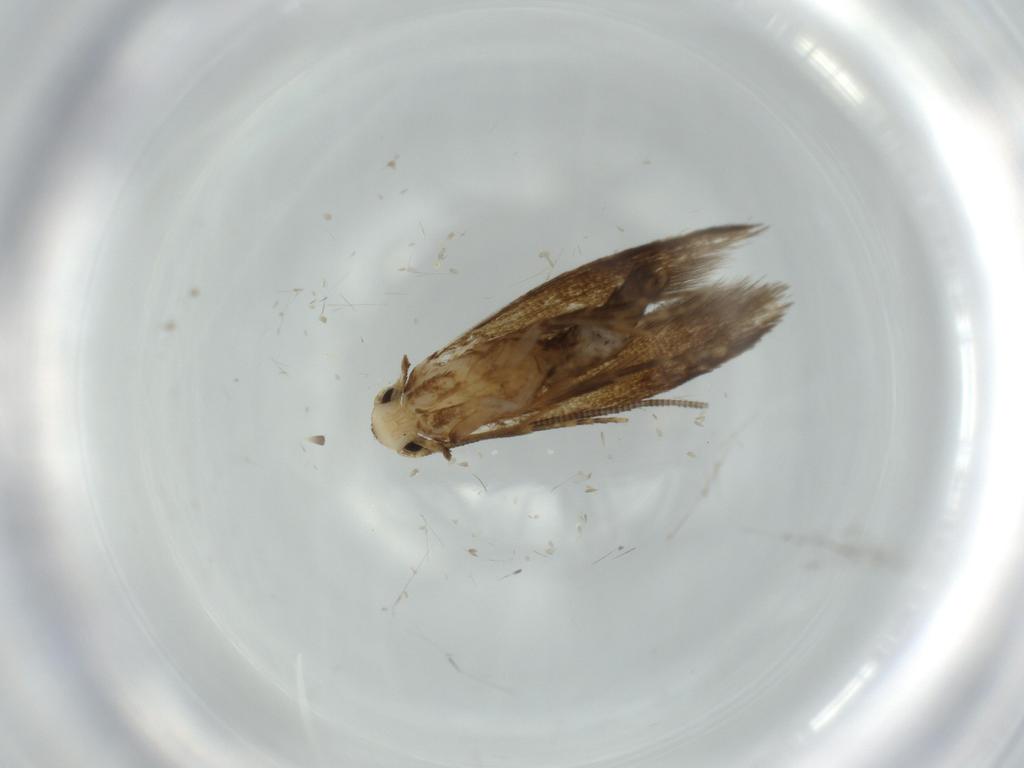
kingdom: Animalia
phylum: Arthropoda
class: Insecta
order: Lepidoptera
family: Tineidae
